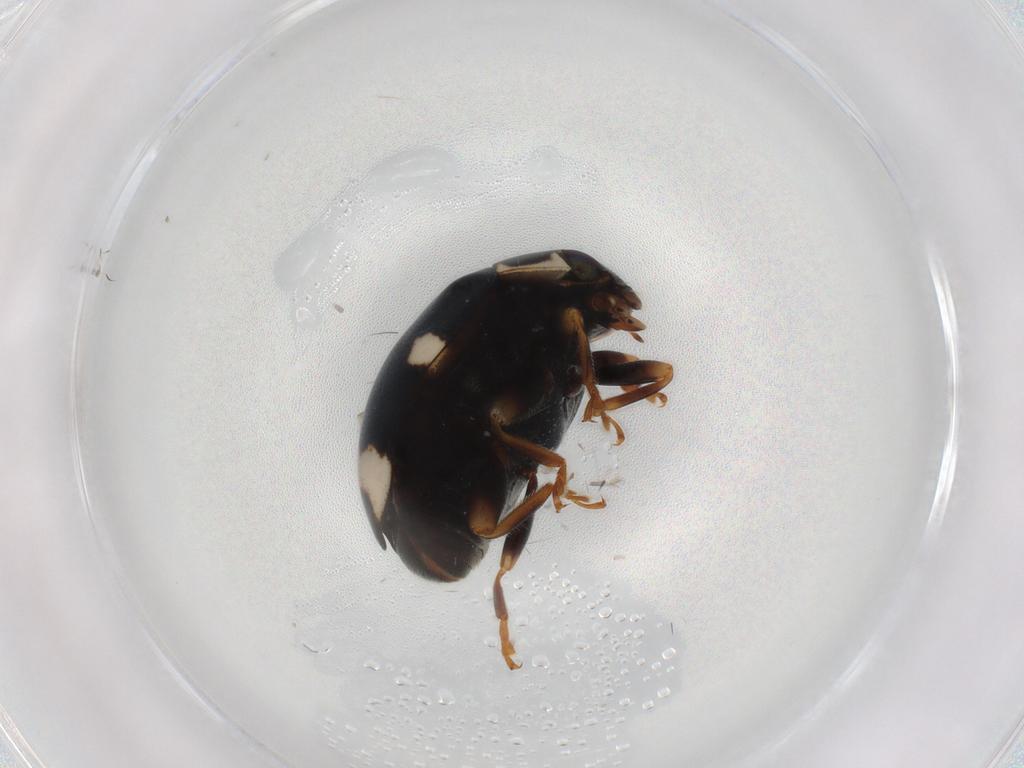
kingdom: Animalia
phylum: Arthropoda
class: Insecta
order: Coleoptera
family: Coccinellidae
